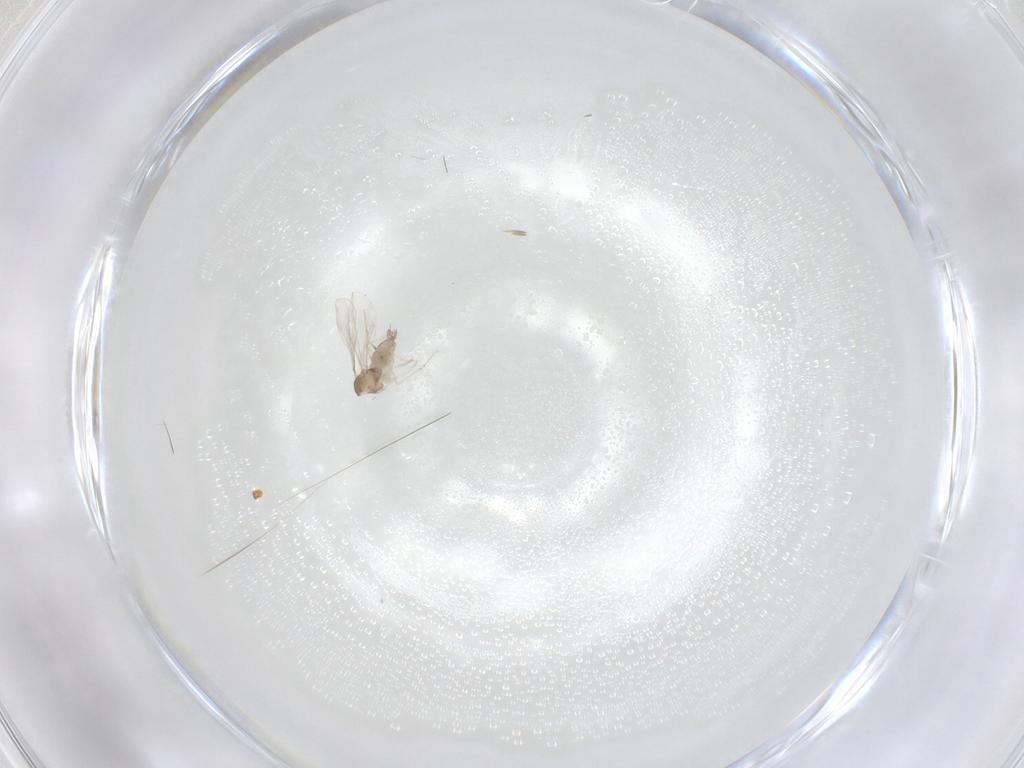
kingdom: Animalia
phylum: Arthropoda
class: Insecta
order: Diptera
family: Cecidomyiidae
